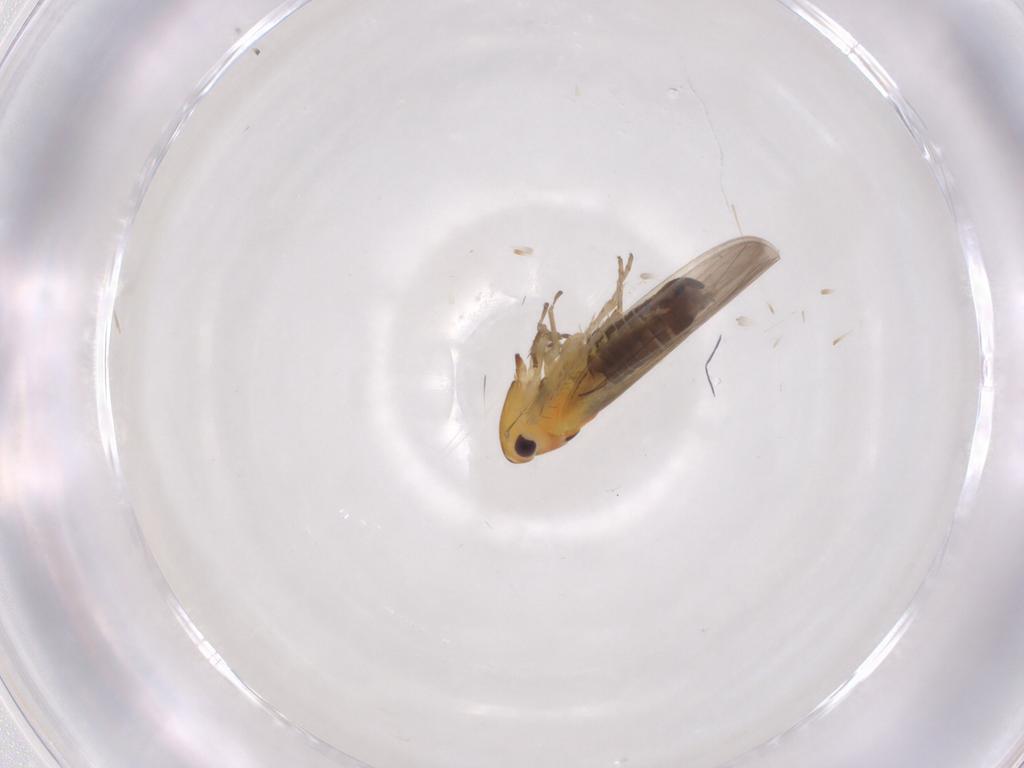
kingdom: Animalia
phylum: Arthropoda
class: Insecta
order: Hemiptera
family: Cicadellidae
